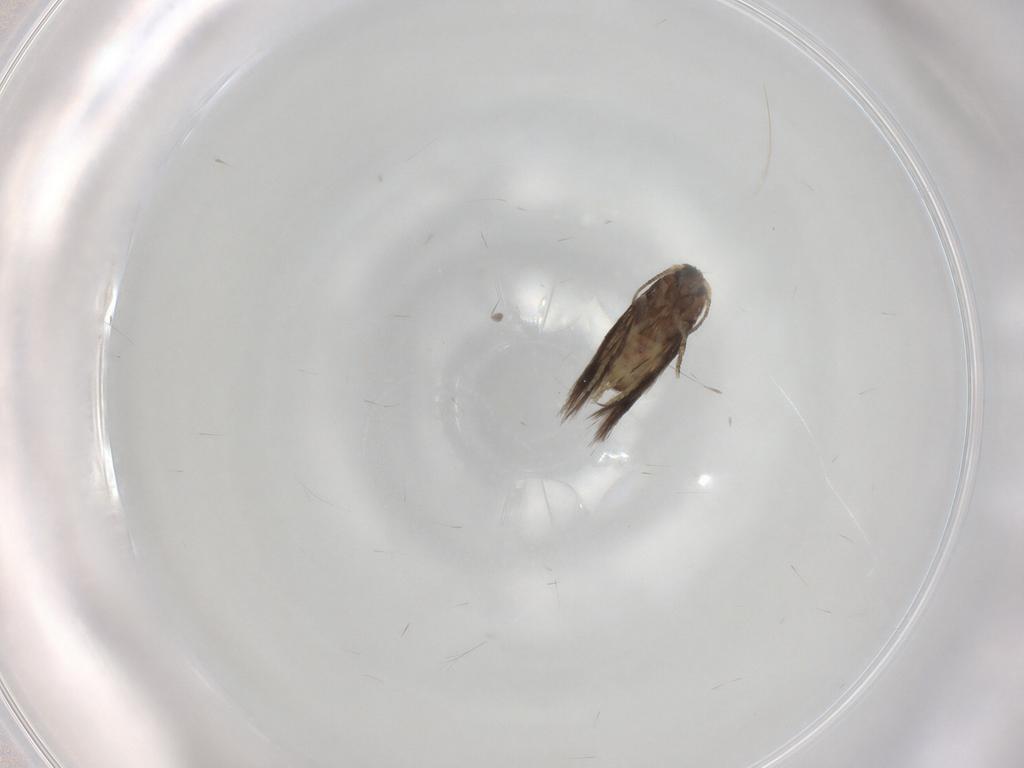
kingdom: Animalia
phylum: Arthropoda
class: Insecta
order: Lepidoptera
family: Nepticulidae
